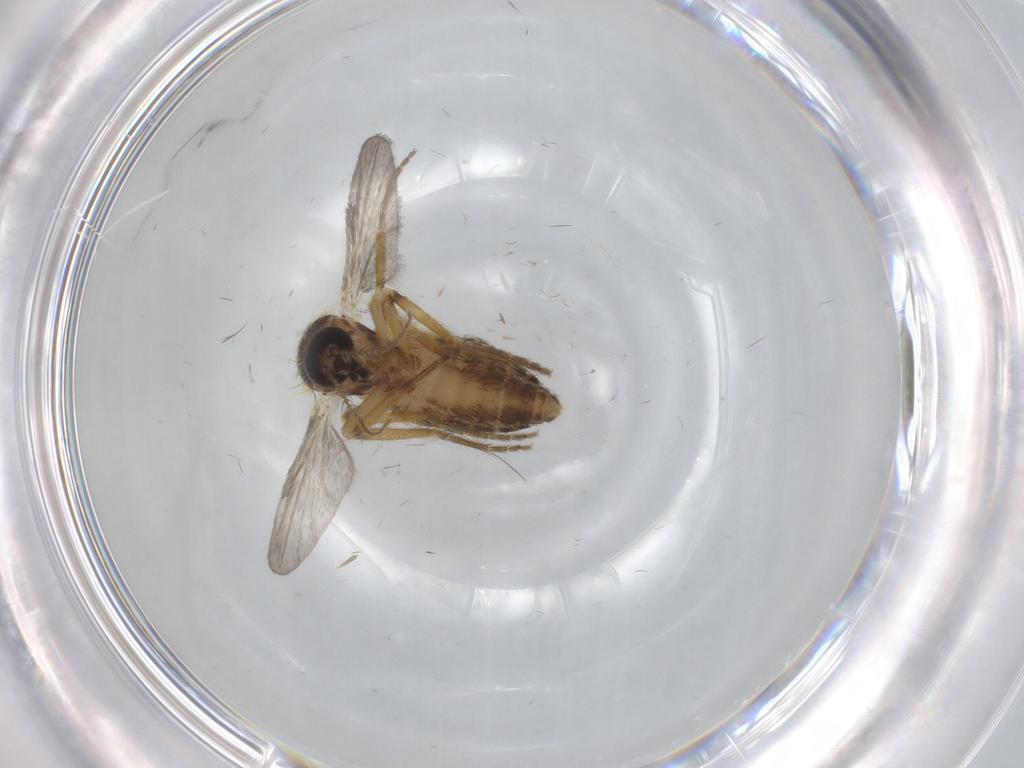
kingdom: Animalia
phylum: Arthropoda
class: Insecta
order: Diptera
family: Ceratopogonidae
